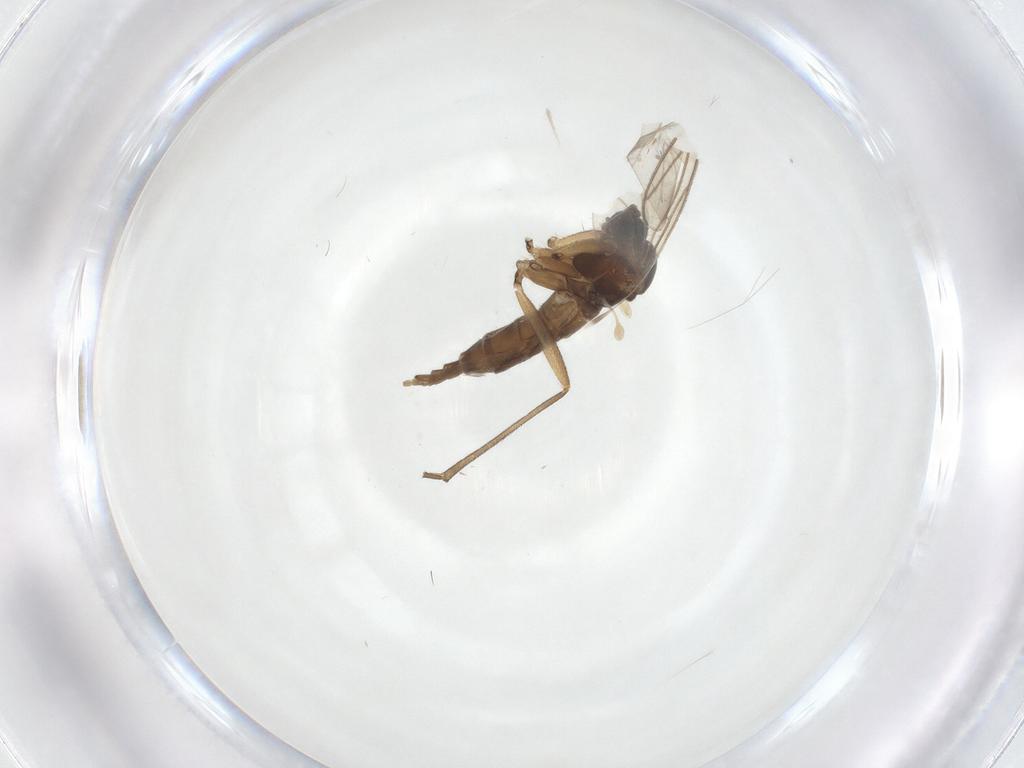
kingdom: Animalia
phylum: Arthropoda
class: Insecta
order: Diptera
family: Sciaridae
